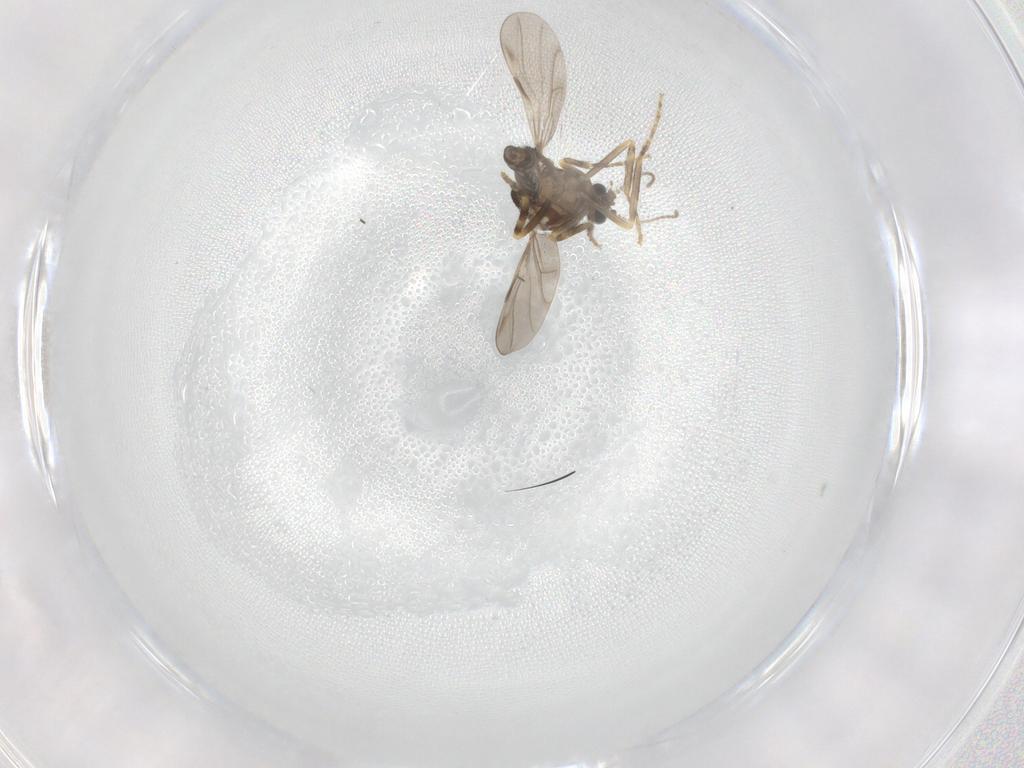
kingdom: Animalia
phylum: Arthropoda
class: Insecta
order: Diptera
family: Ceratopogonidae
